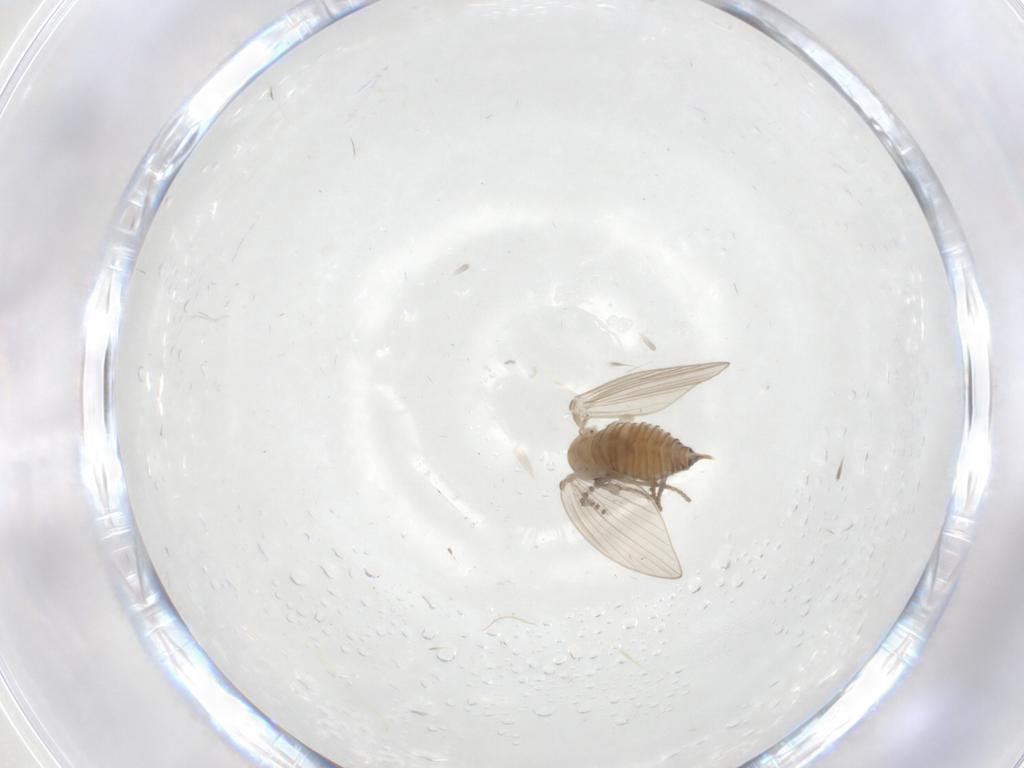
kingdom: Animalia
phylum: Arthropoda
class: Insecta
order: Diptera
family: Psychodidae
